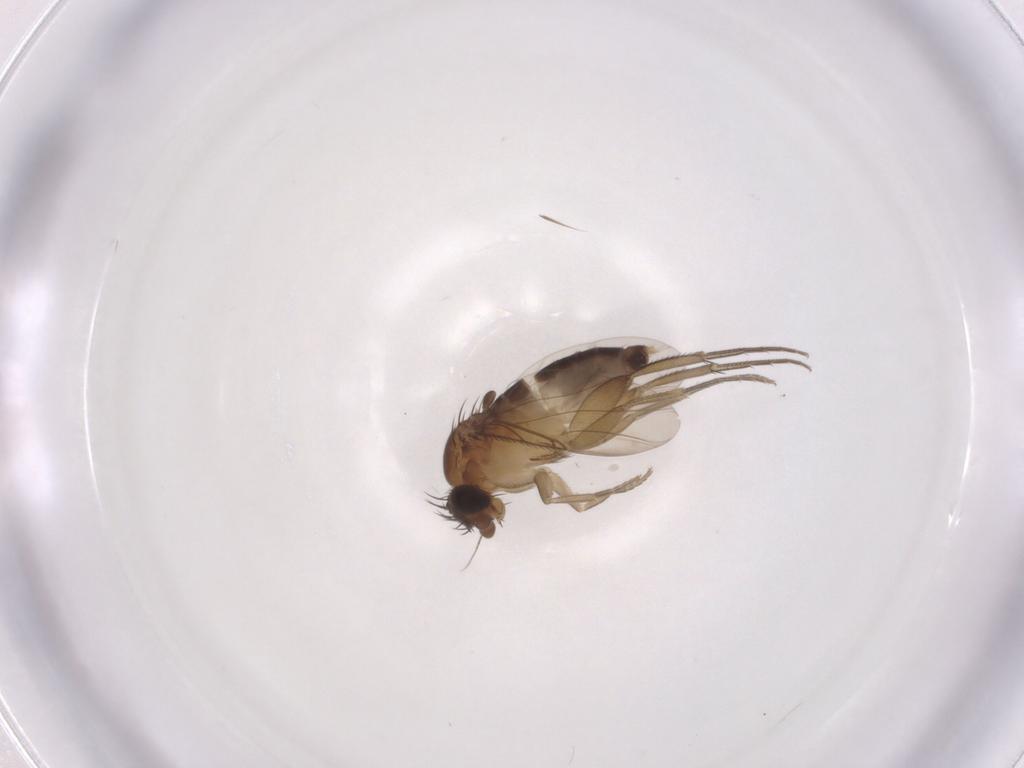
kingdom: Animalia
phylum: Arthropoda
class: Insecta
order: Diptera
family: Phoridae
